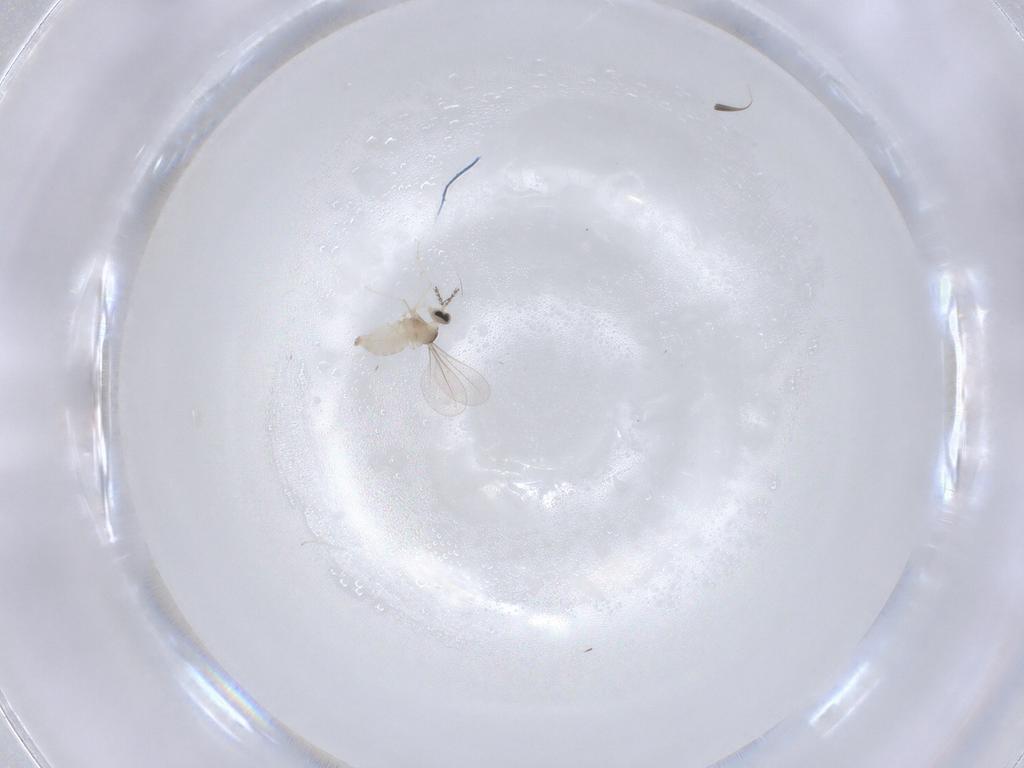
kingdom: Animalia
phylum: Arthropoda
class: Insecta
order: Diptera
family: Cecidomyiidae
